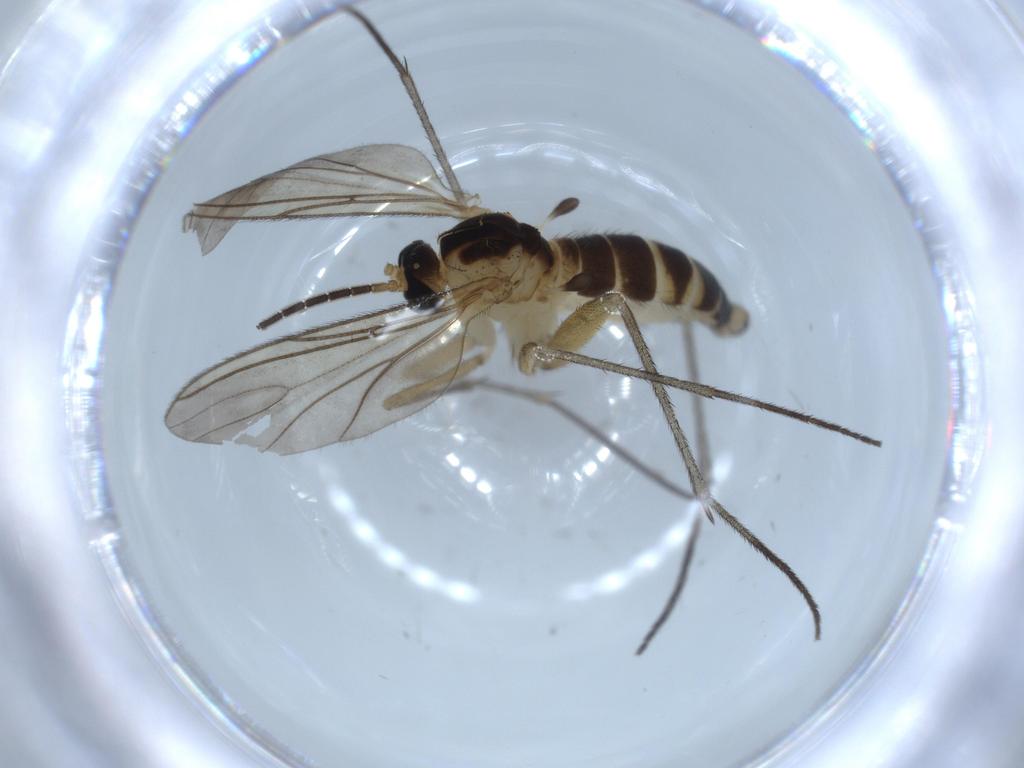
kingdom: Animalia
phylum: Arthropoda
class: Insecta
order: Diptera
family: Sciaridae
